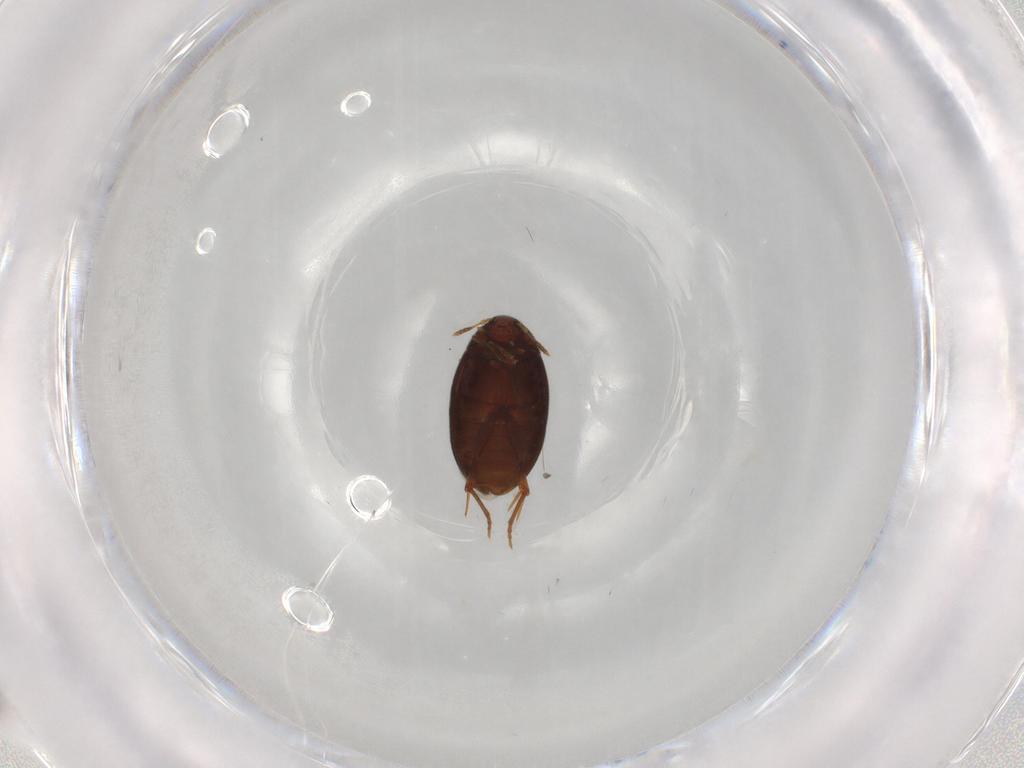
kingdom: Animalia
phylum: Arthropoda
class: Insecta
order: Coleoptera
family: Melandryidae
